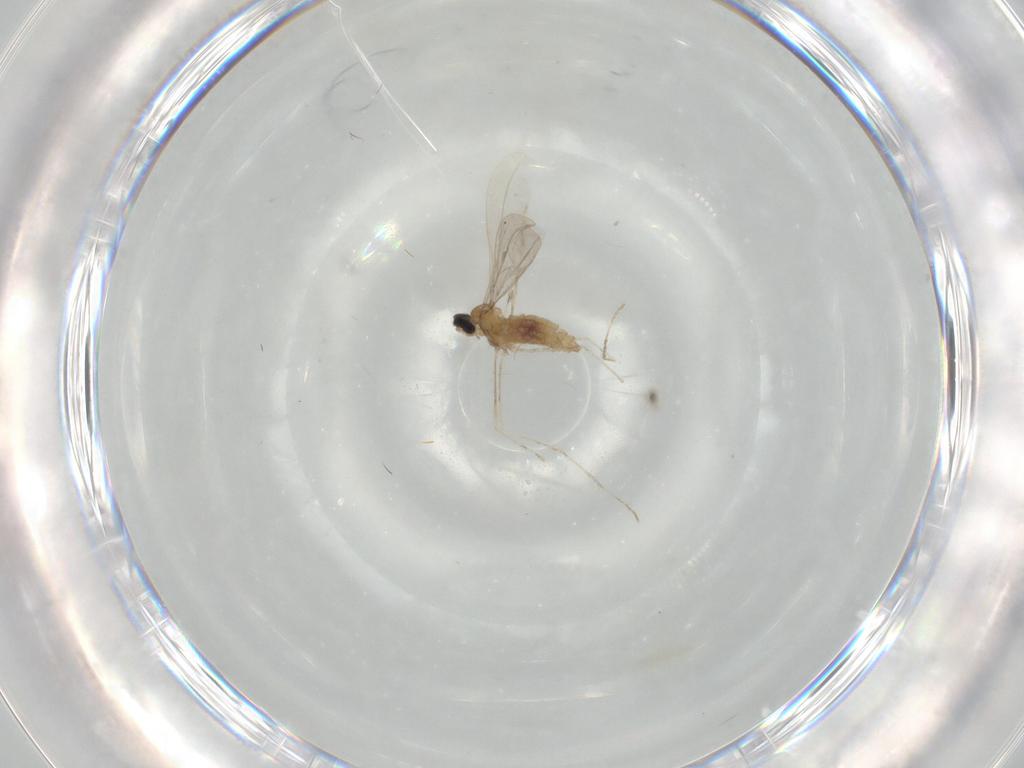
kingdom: Animalia
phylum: Arthropoda
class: Insecta
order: Diptera
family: Cecidomyiidae
